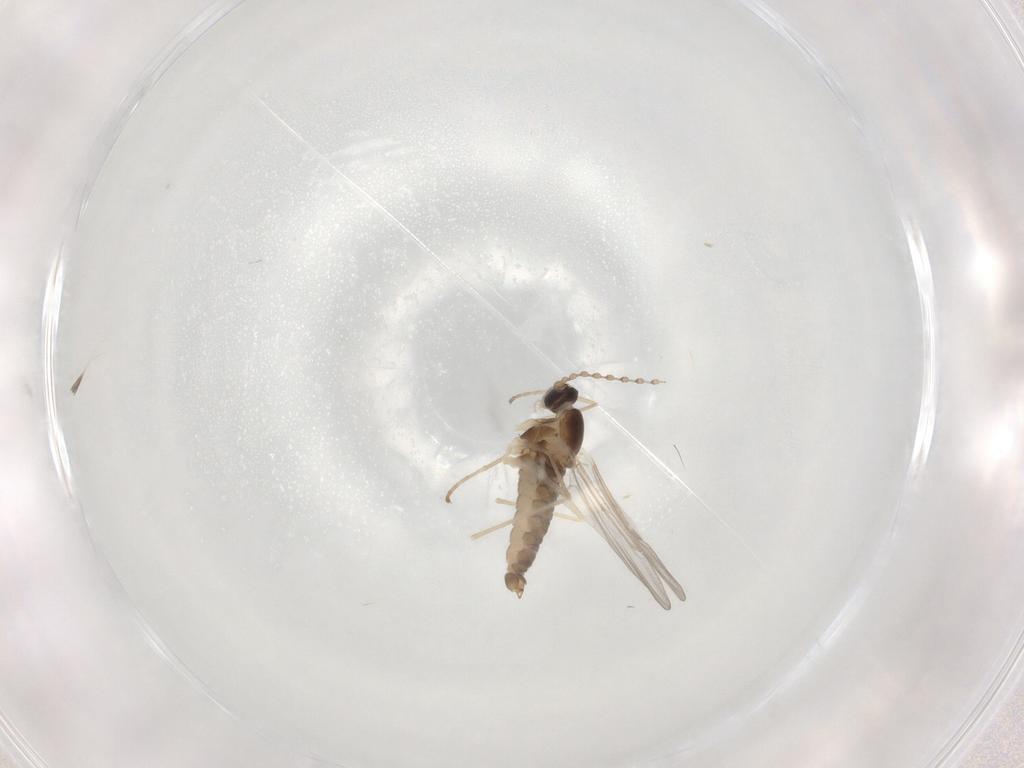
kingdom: Animalia
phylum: Arthropoda
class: Insecta
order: Diptera
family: Cecidomyiidae
